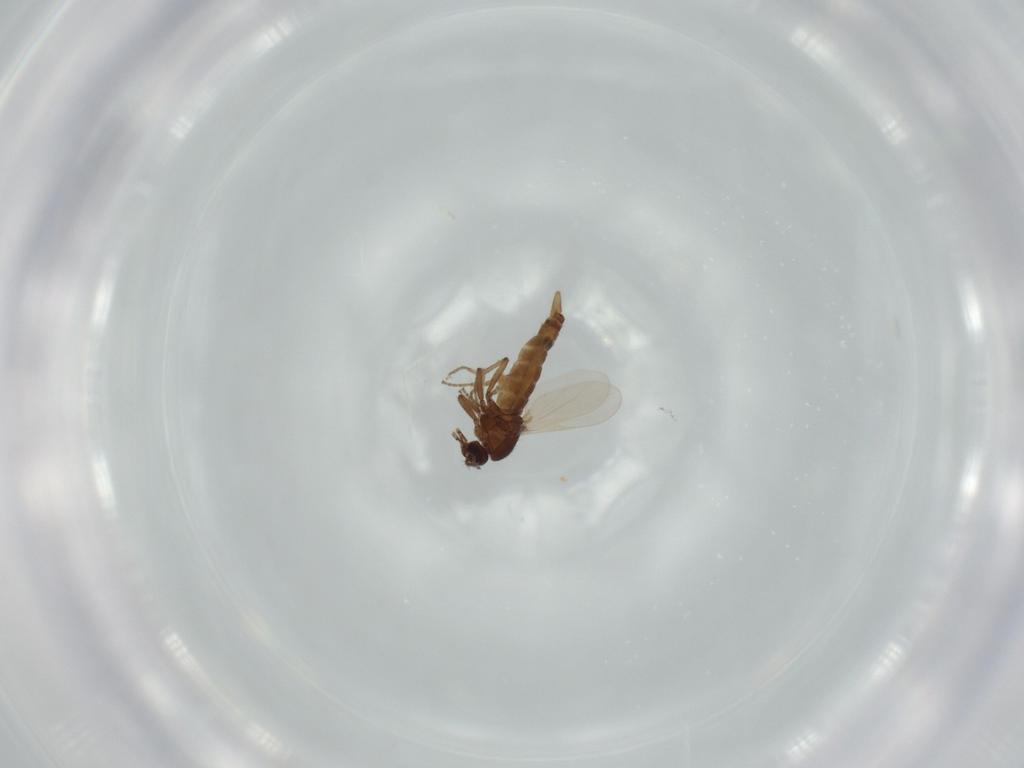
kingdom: Animalia
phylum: Arthropoda
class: Insecta
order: Diptera
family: Ceratopogonidae
